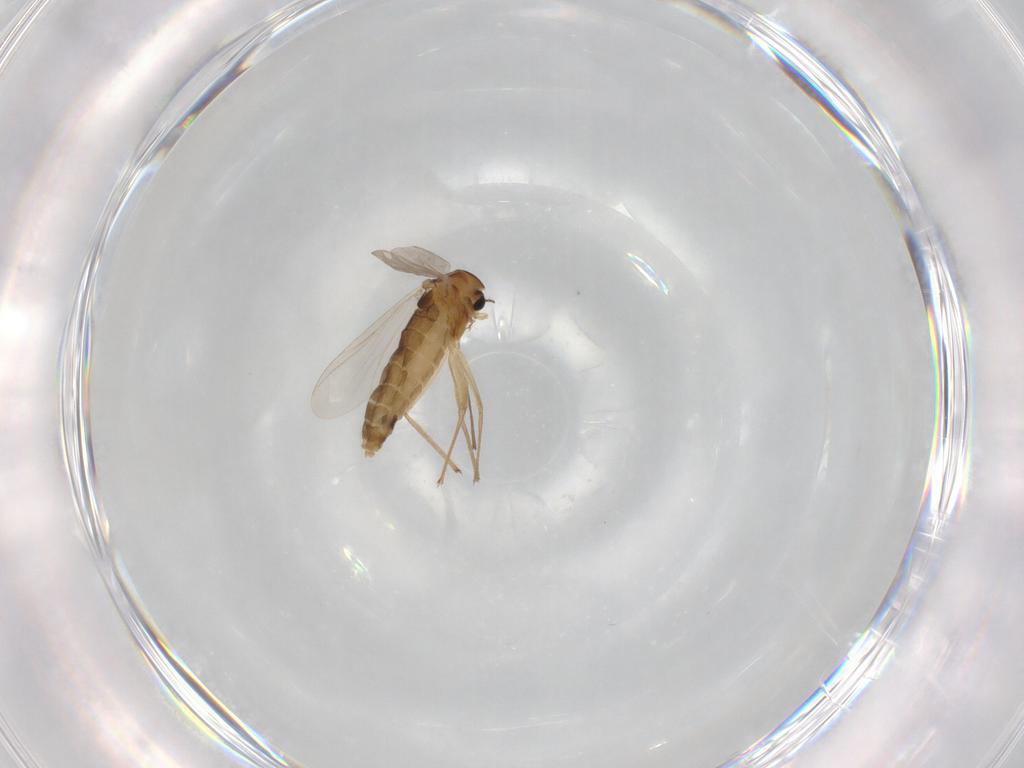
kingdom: Animalia
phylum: Arthropoda
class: Insecta
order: Diptera
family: Chironomidae
